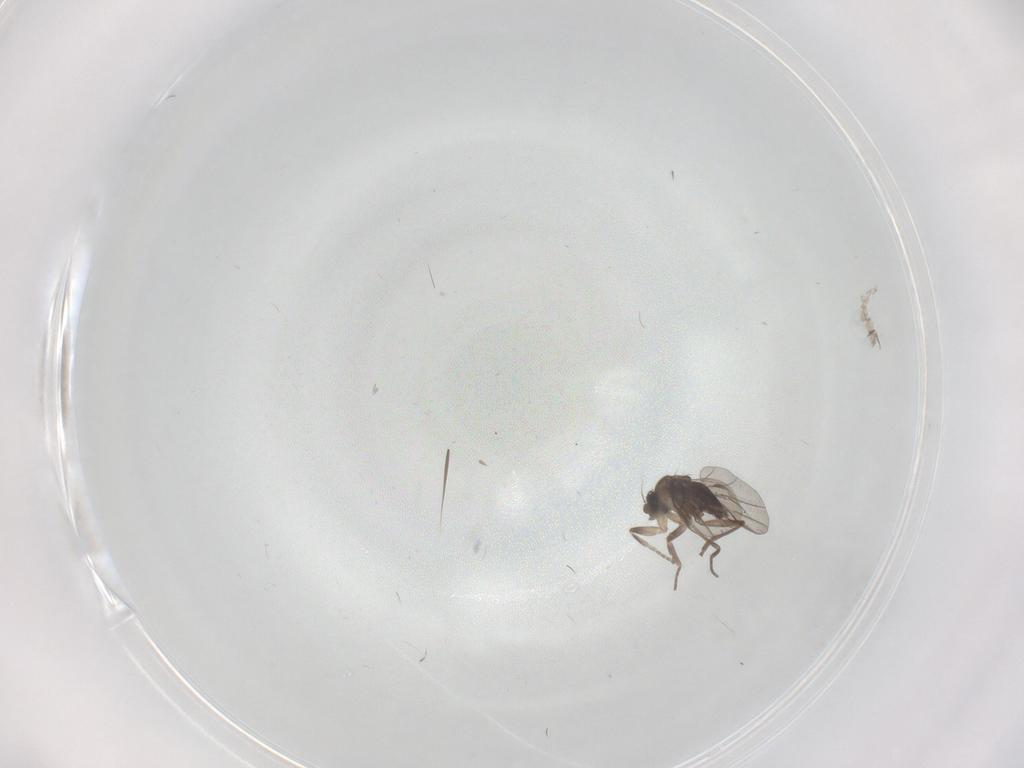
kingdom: Animalia
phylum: Arthropoda
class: Insecta
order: Diptera
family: Phoridae
